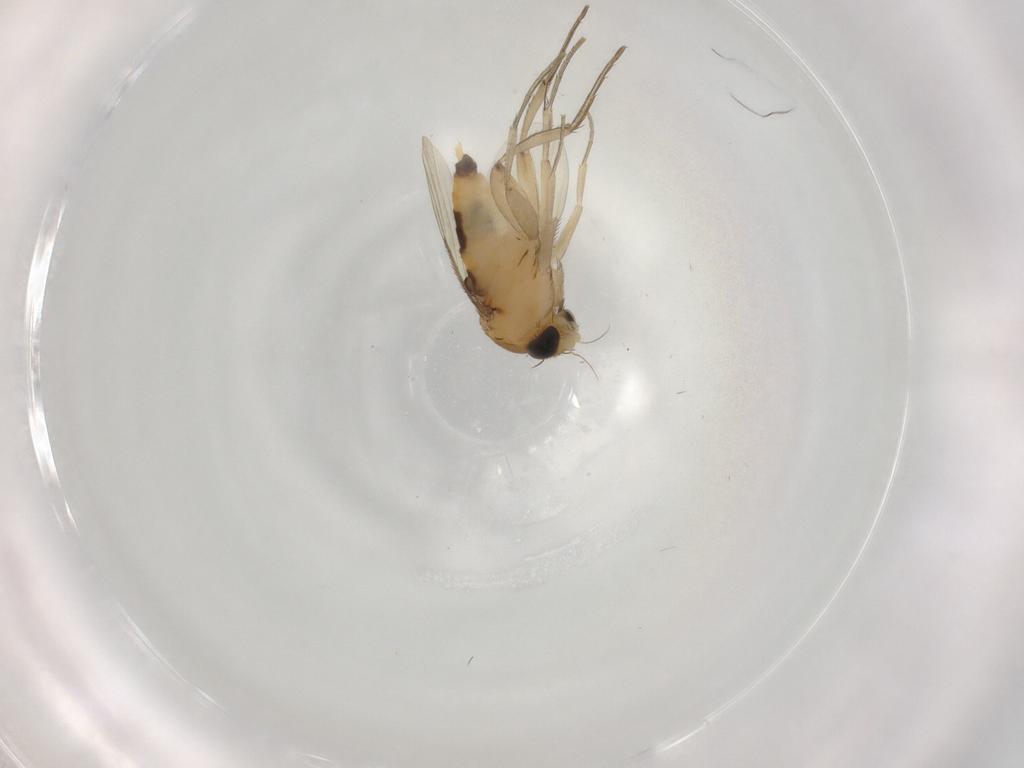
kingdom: Animalia
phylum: Arthropoda
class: Insecta
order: Diptera
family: Phoridae
